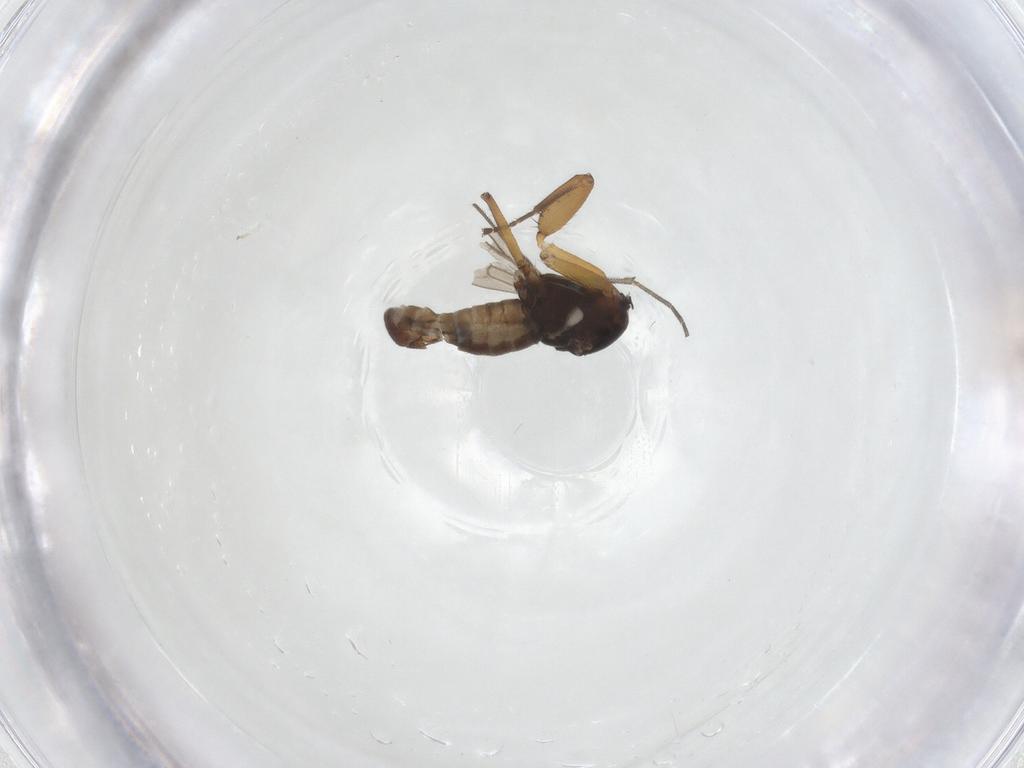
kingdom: Animalia
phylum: Arthropoda
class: Insecta
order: Diptera
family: Empididae
